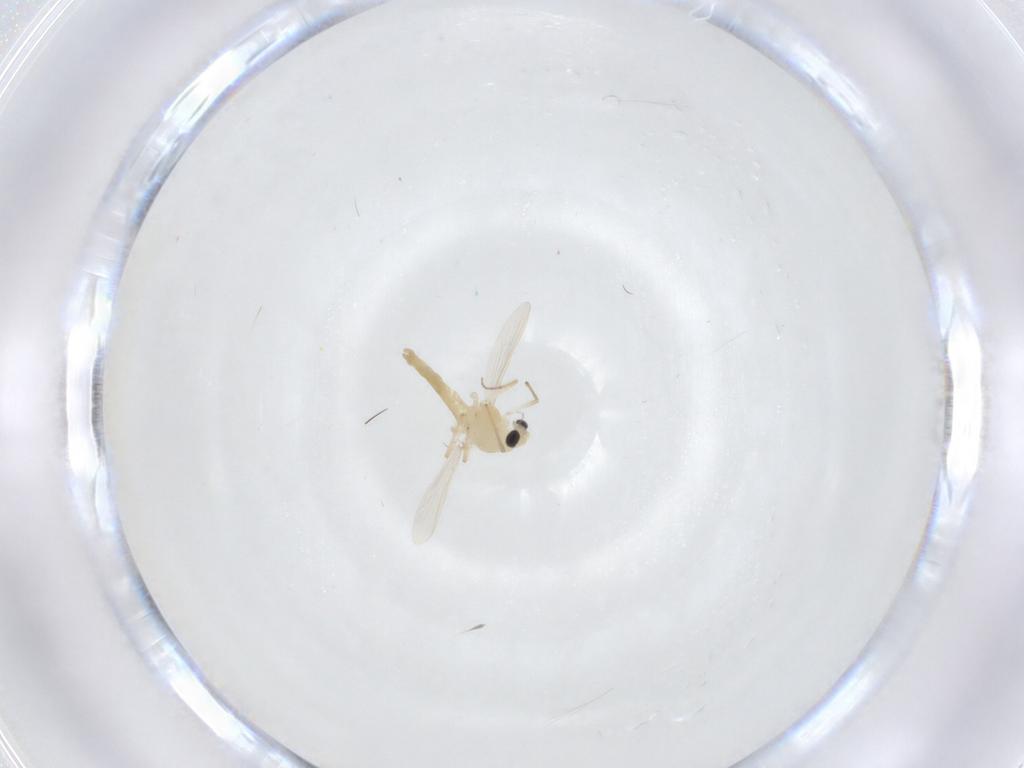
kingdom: Animalia
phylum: Arthropoda
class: Insecta
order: Diptera
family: Chironomidae
